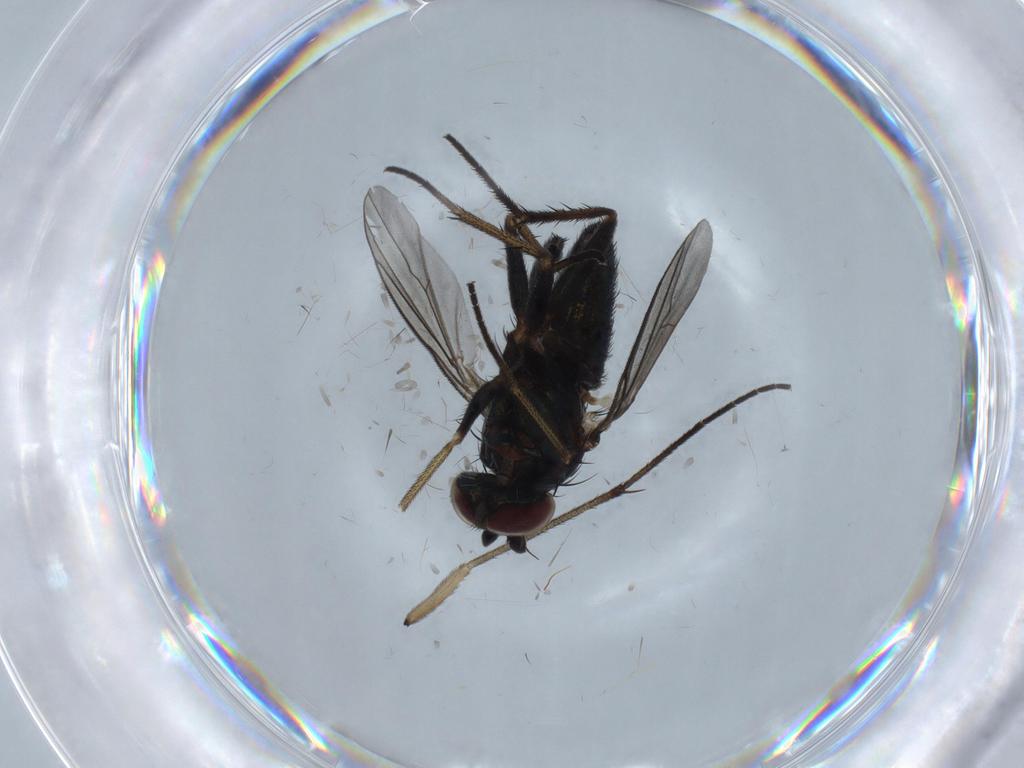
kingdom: Animalia
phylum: Arthropoda
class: Insecta
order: Diptera
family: Dolichopodidae
